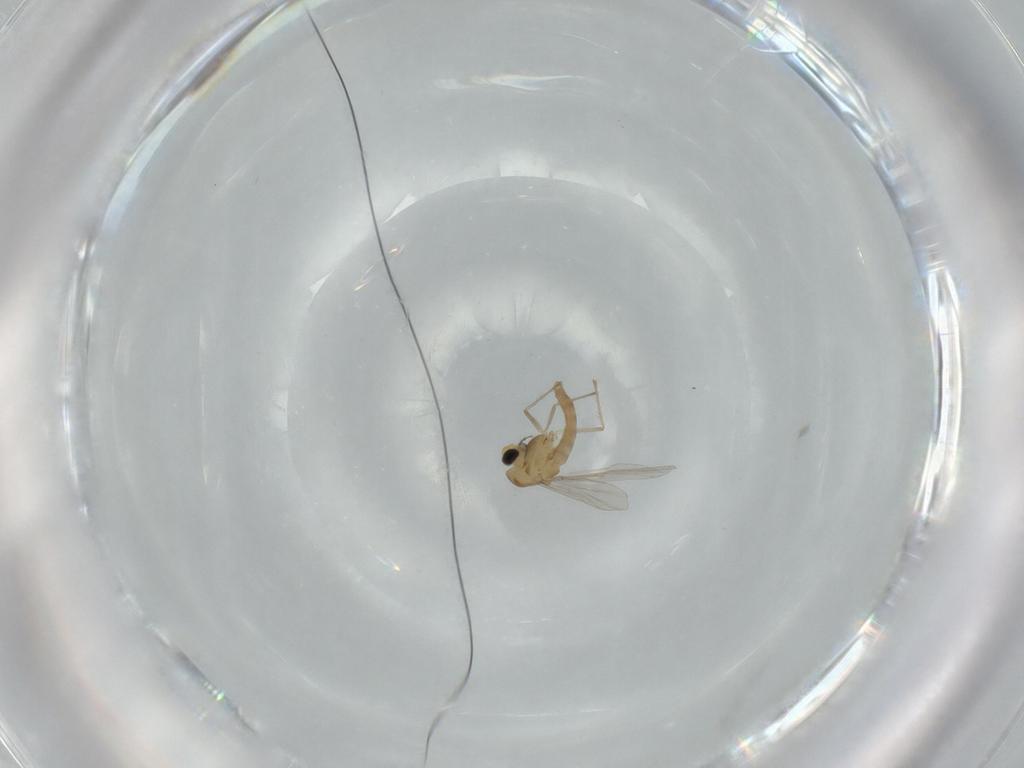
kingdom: Animalia
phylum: Arthropoda
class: Insecta
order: Diptera
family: Chironomidae
